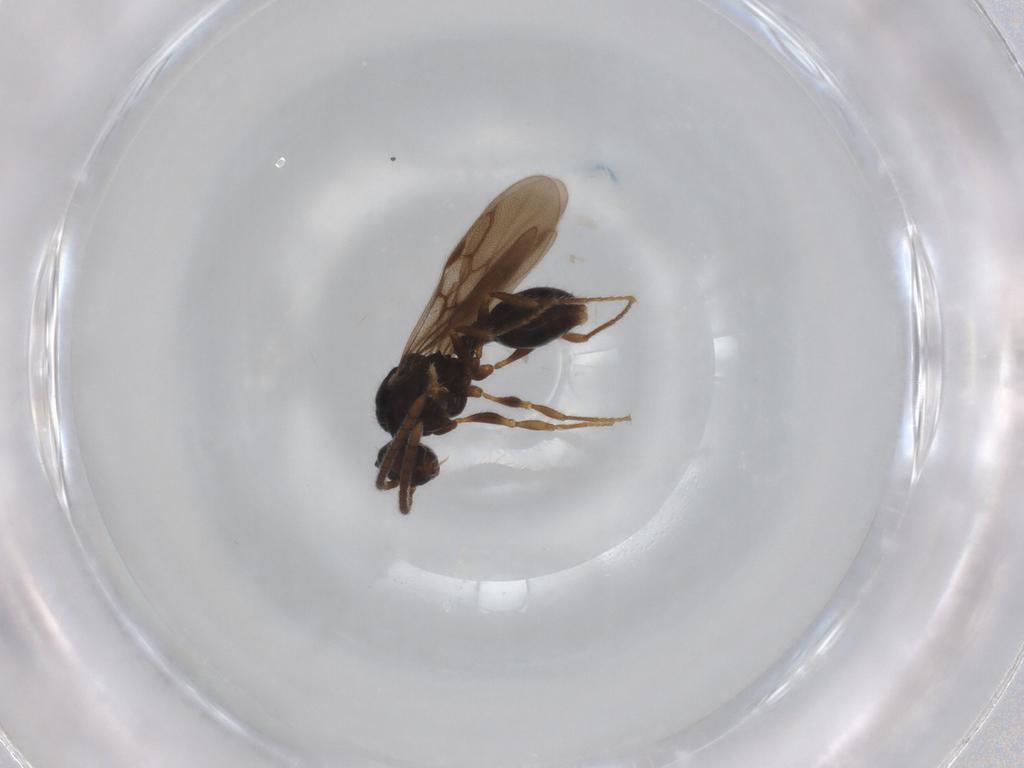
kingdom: Animalia
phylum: Arthropoda
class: Insecta
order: Hymenoptera
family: Formicidae
